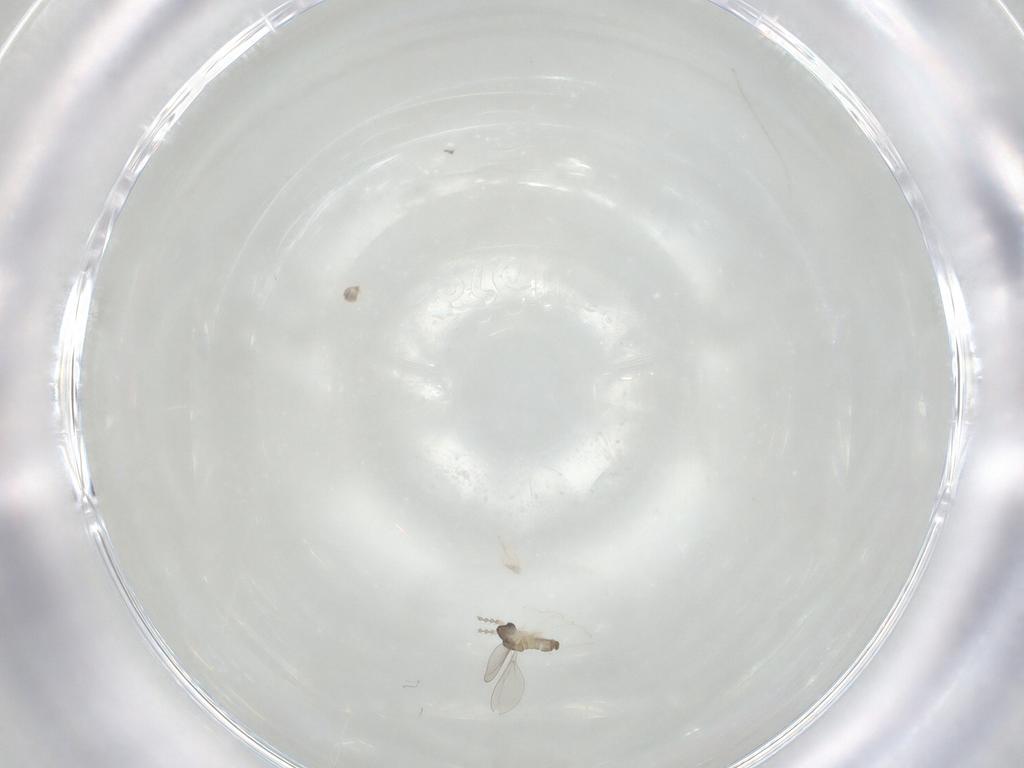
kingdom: Animalia
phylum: Arthropoda
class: Insecta
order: Diptera
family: Cecidomyiidae
